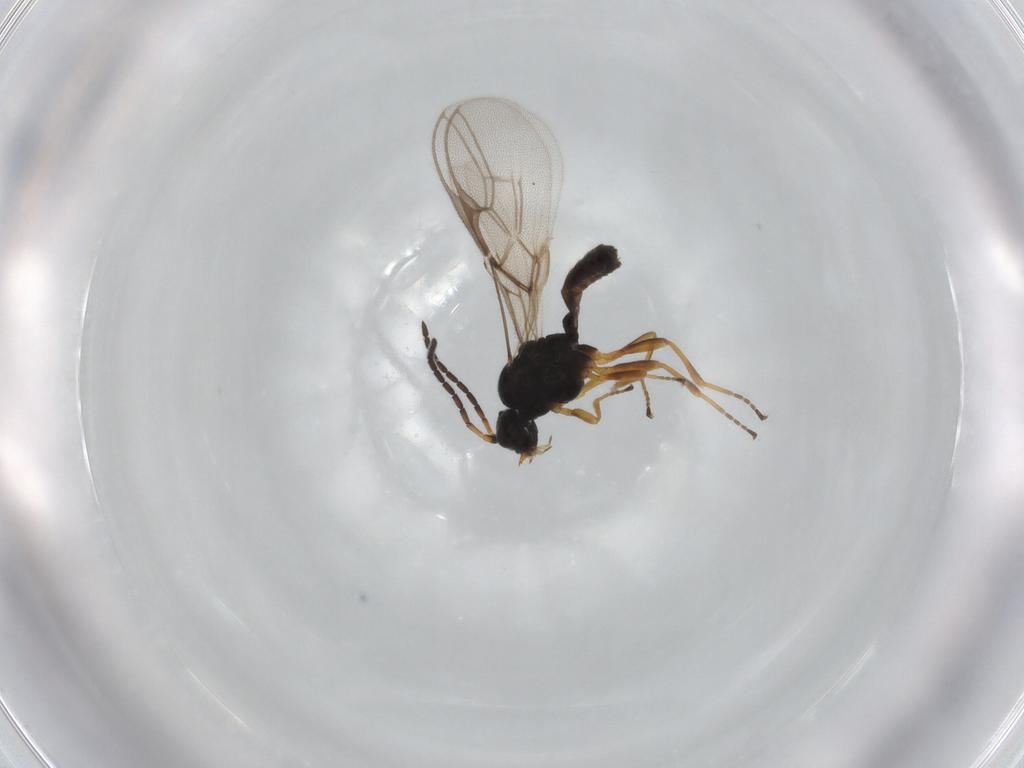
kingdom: Animalia
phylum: Arthropoda
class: Insecta
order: Hymenoptera
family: Braconidae
